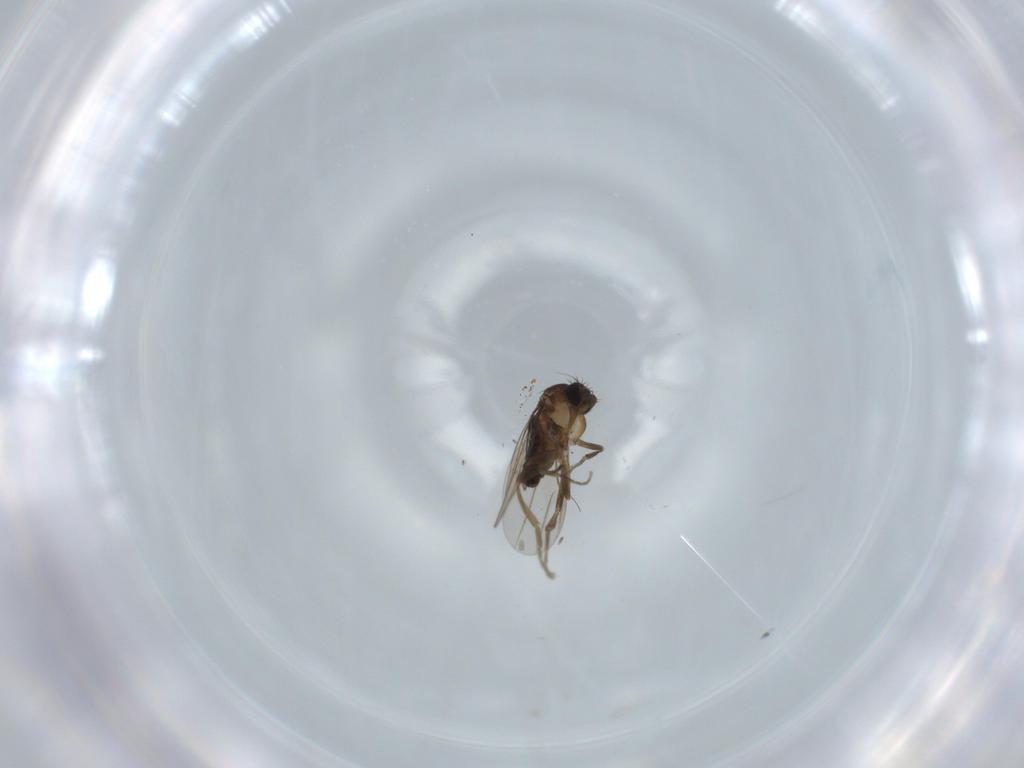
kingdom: Animalia
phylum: Arthropoda
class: Insecta
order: Diptera
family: Phoridae
